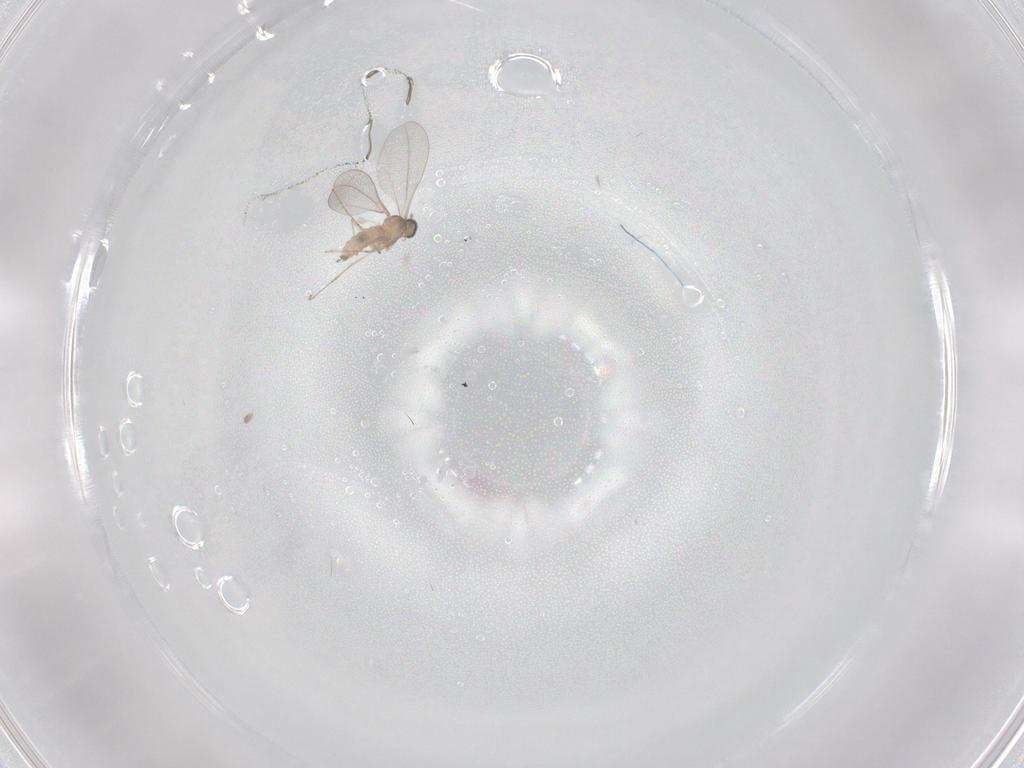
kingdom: Animalia
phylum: Arthropoda
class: Insecta
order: Diptera
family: Cecidomyiidae
